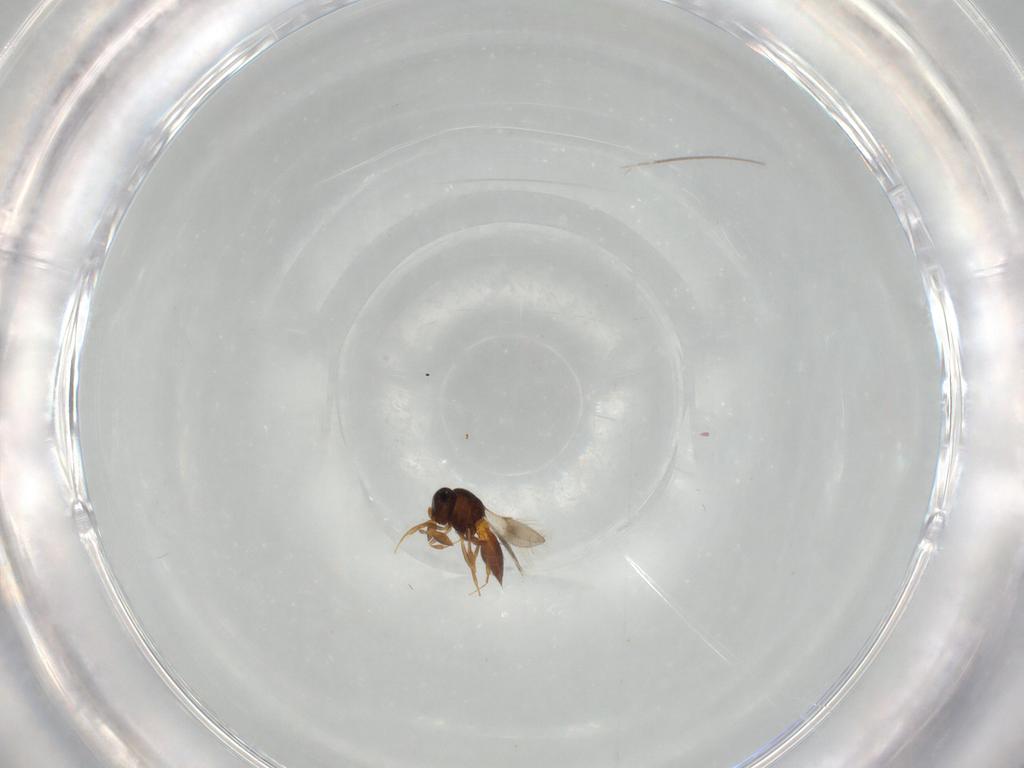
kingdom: Animalia
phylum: Arthropoda
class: Insecta
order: Hymenoptera
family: Scelionidae
